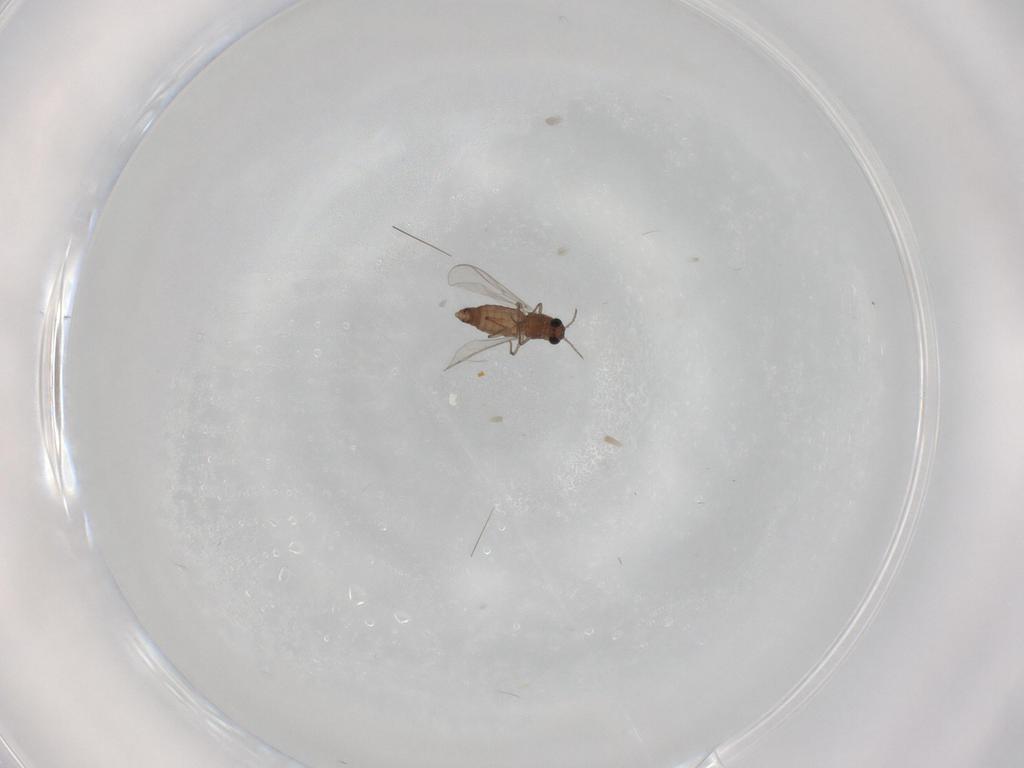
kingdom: Animalia
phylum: Arthropoda
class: Insecta
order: Diptera
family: Chironomidae
